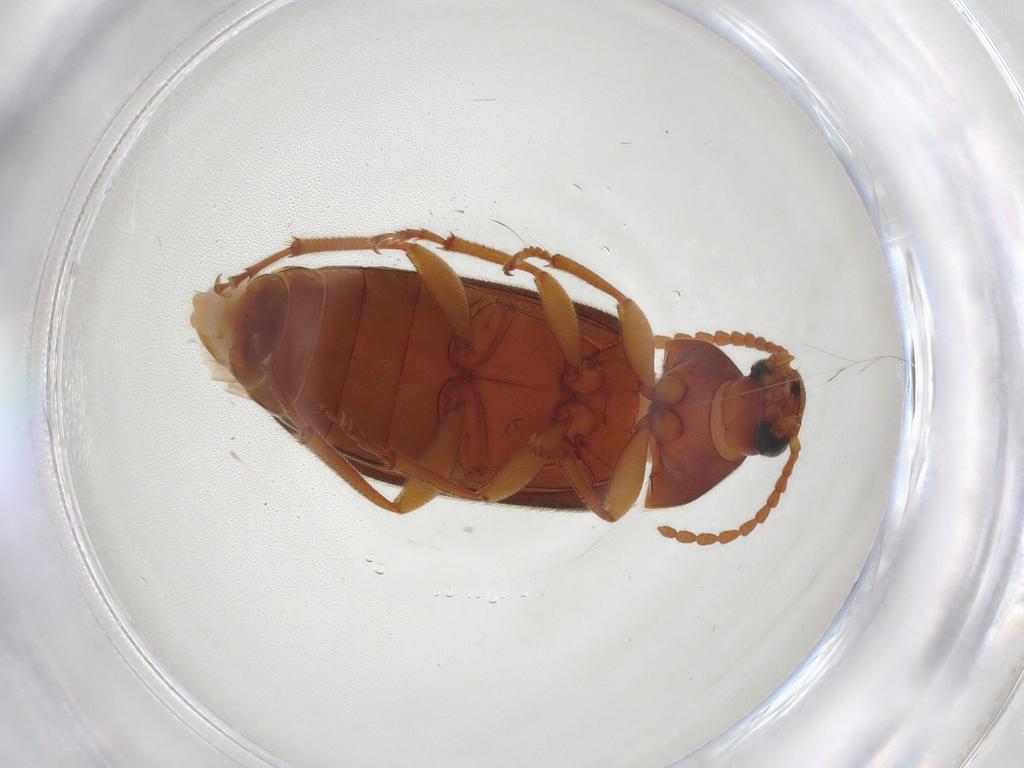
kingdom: Animalia
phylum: Arthropoda
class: Insecta
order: Coleoptera
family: Tenebrionidae
